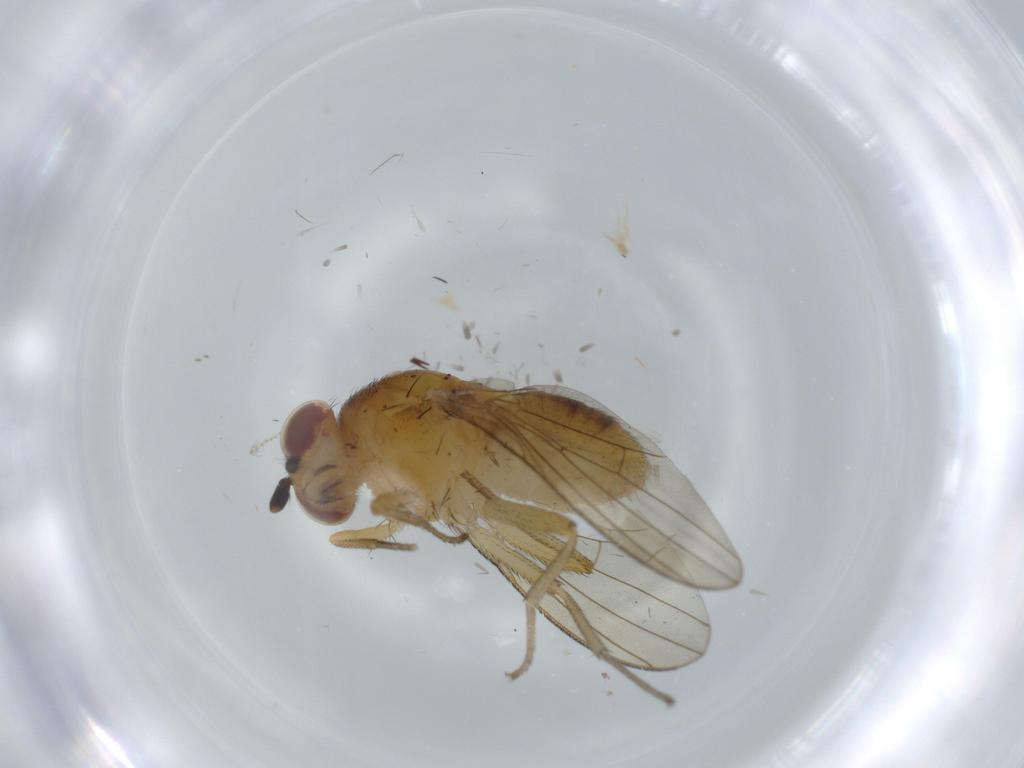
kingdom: Animalia
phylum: Arthropoda
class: Insecta
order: Diptera
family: Lauxaniidae
